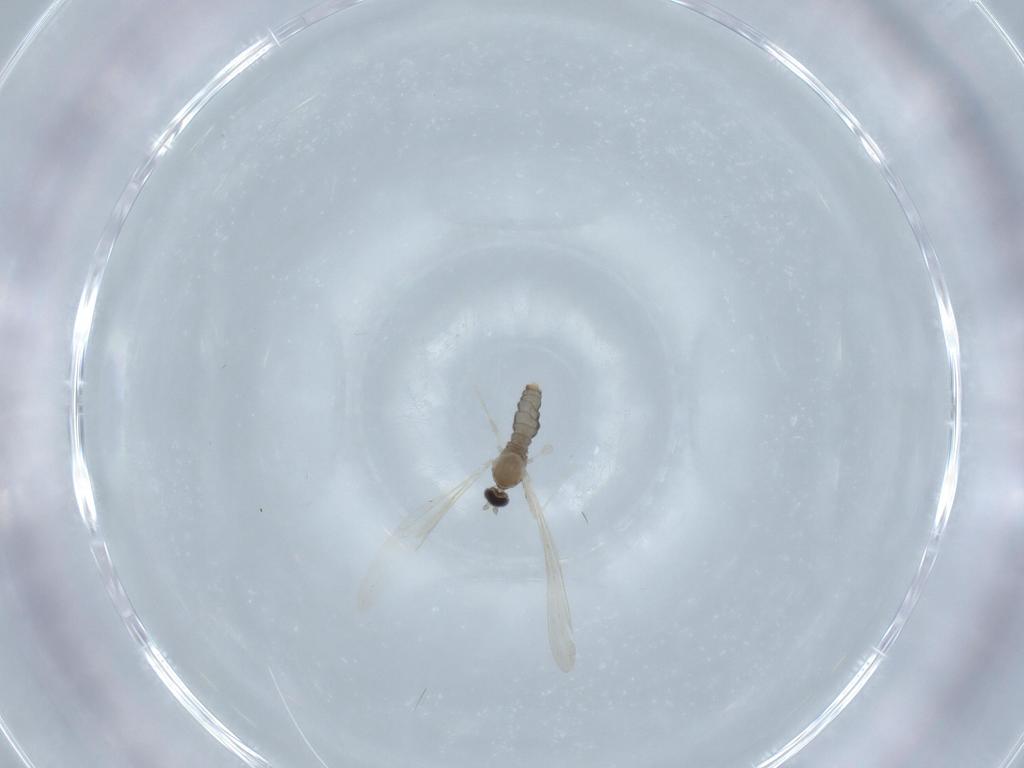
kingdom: Animalia
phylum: Arthropoda
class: Insecta
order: Diptera
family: Cecidomyiidae
